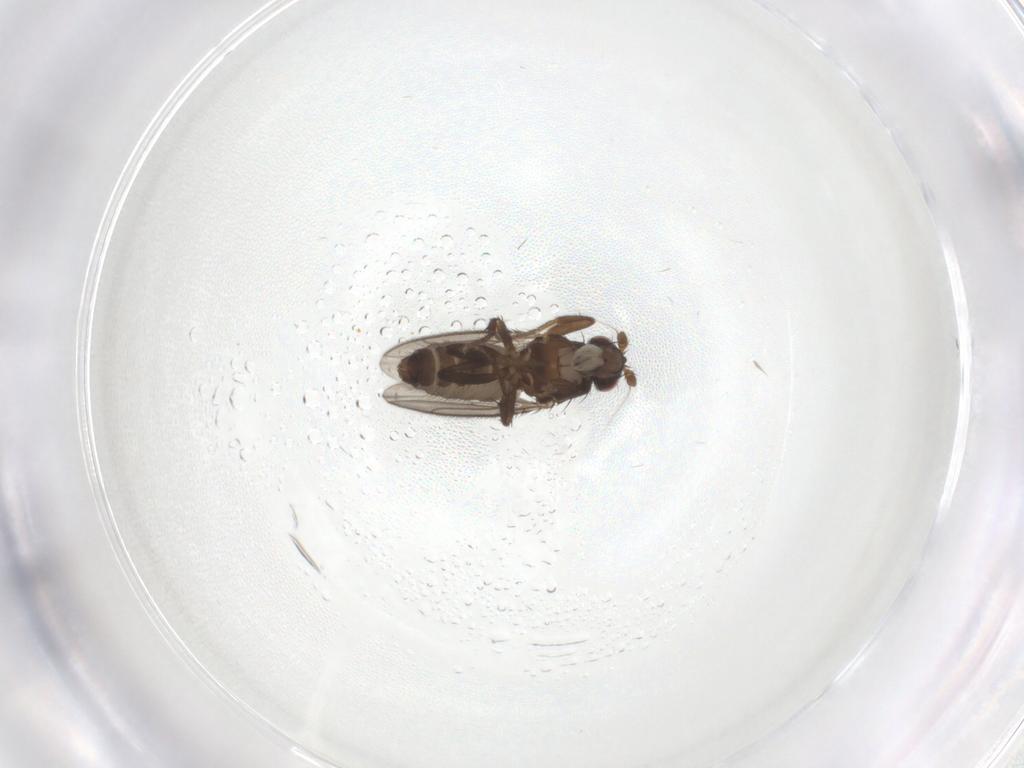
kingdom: Animalia
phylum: Arthropoda
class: Insecta
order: Diptera
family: Sphaeroceridae
